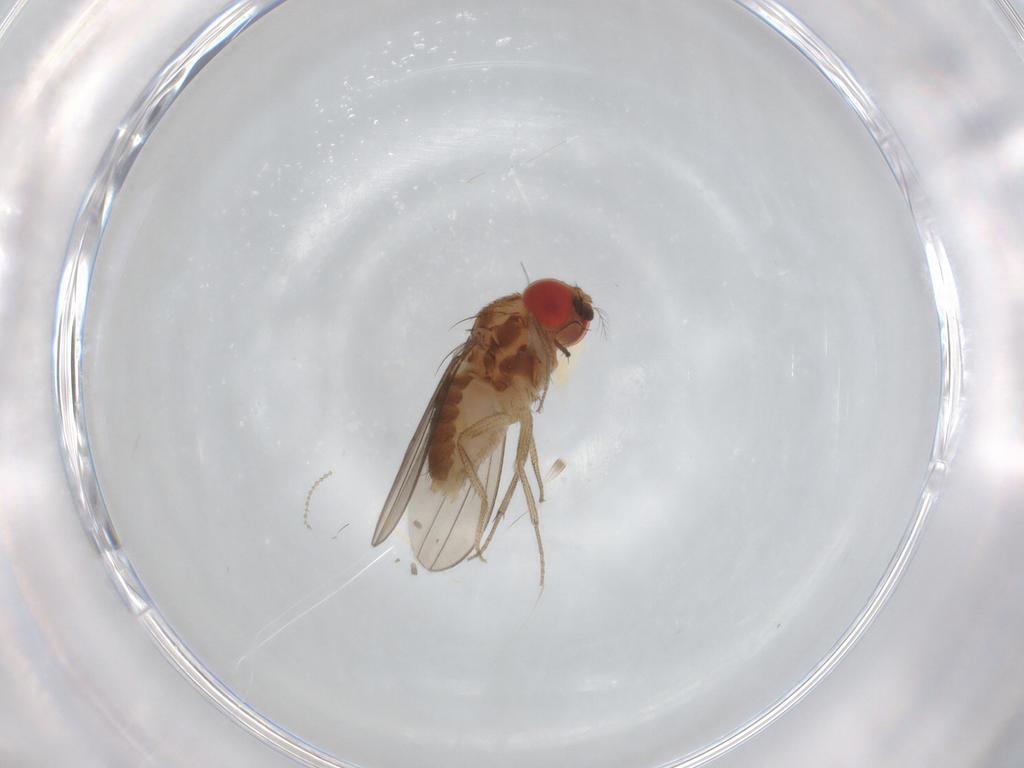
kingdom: Animalia
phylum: Arthropoda
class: Insecta
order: Diptera
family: Drosophilidae
